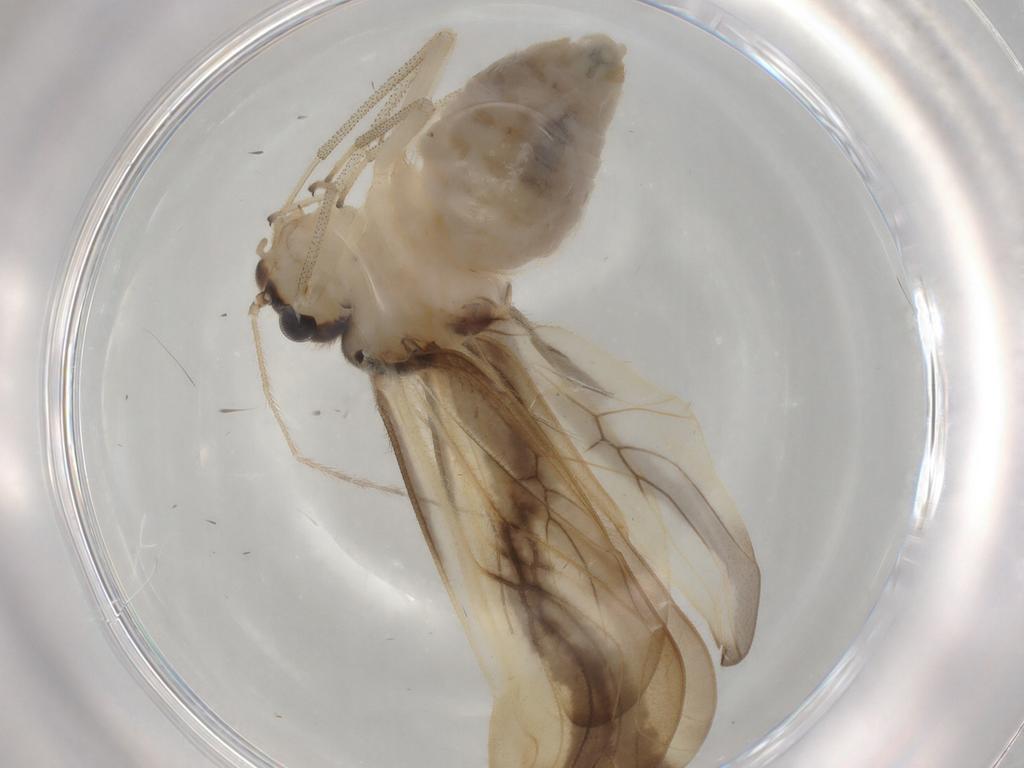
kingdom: Animalia
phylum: Arthropoda
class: Insecta
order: Psocodea
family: Amphipsocidae
